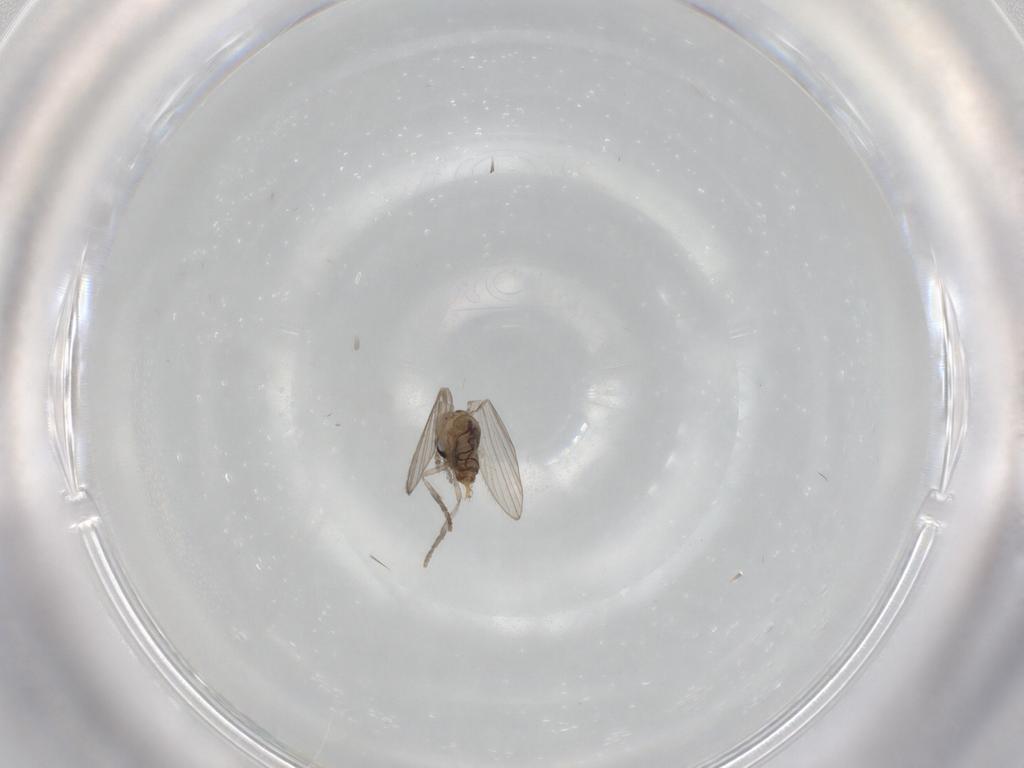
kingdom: Animalia
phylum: Arthropoda
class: Insecta
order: Diptera
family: Psychodidae
